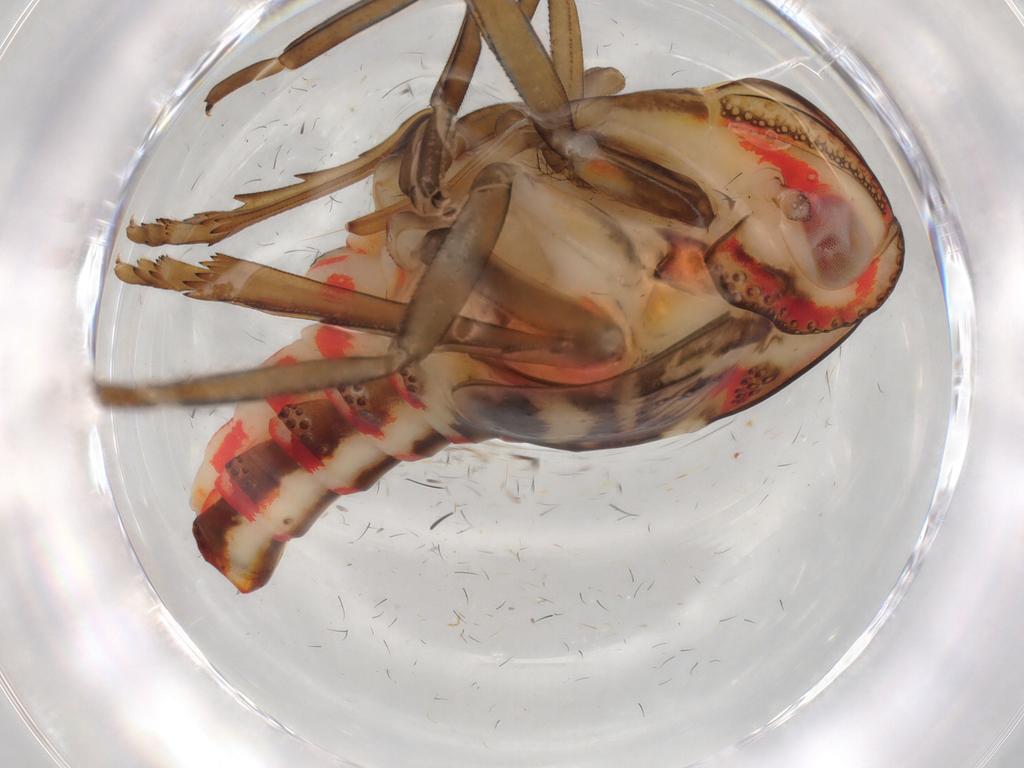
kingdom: Animalia
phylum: Arthropoda
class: Insecta
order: Hemiptera
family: Nogodinidae
